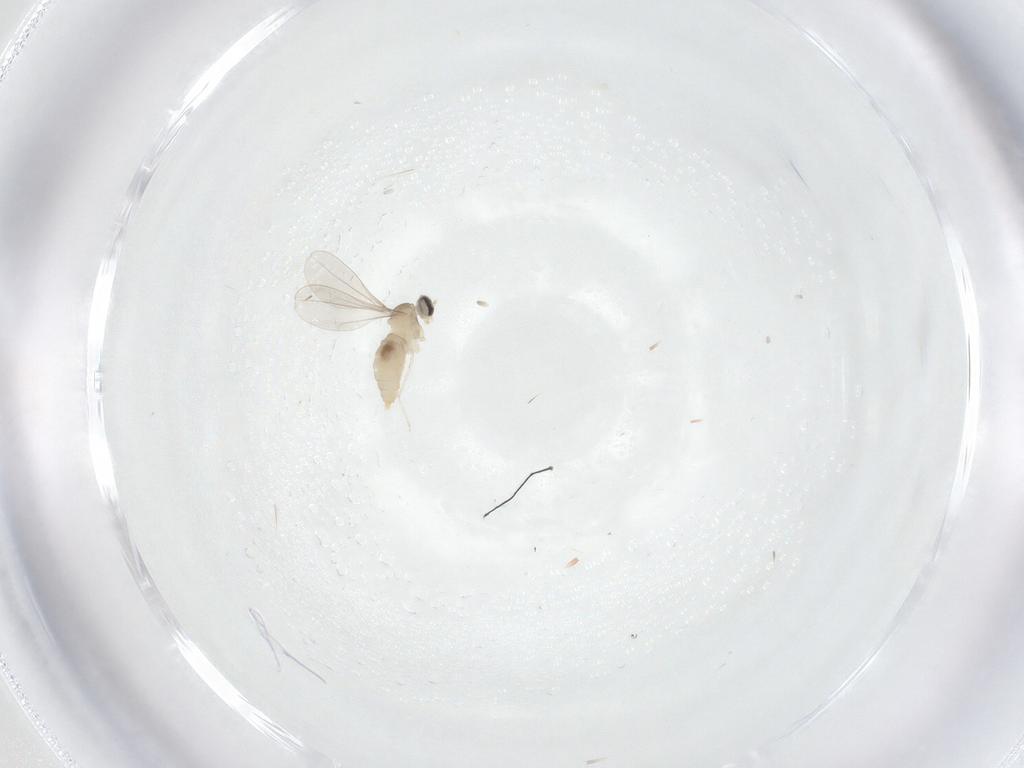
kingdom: Animalia
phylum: Arthropoda
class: Insecta
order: Diptera
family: Cecidomyiidae
